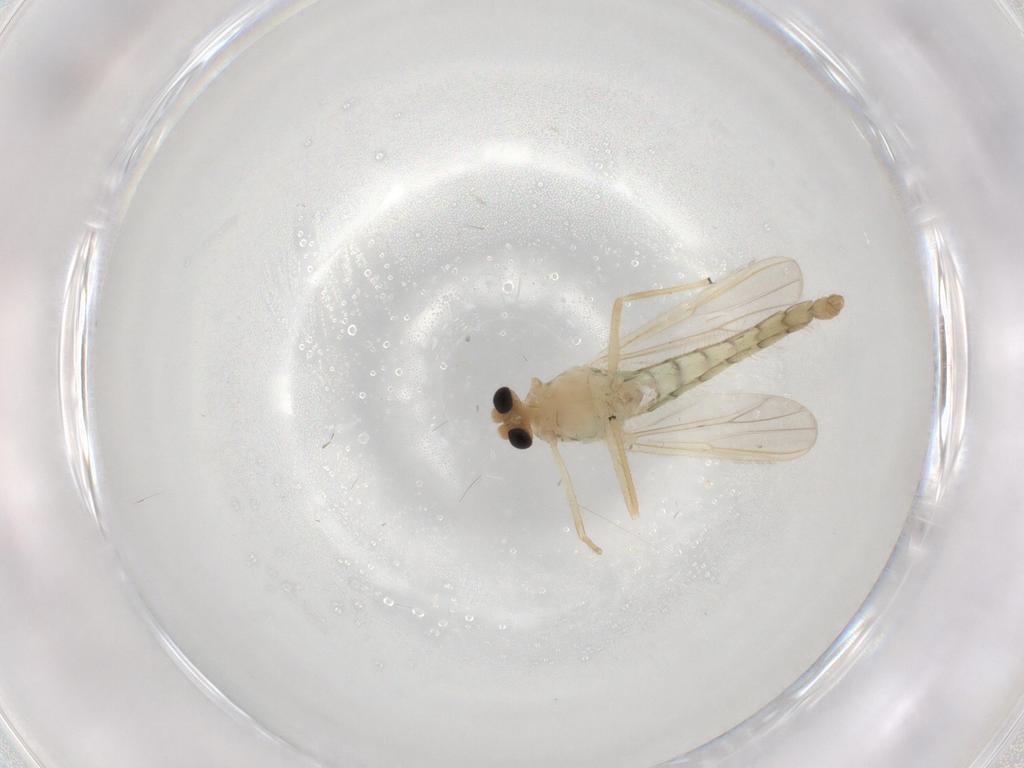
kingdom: Animalia
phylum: Arthropoda
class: Insecta
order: Diptera
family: Chironomidae
